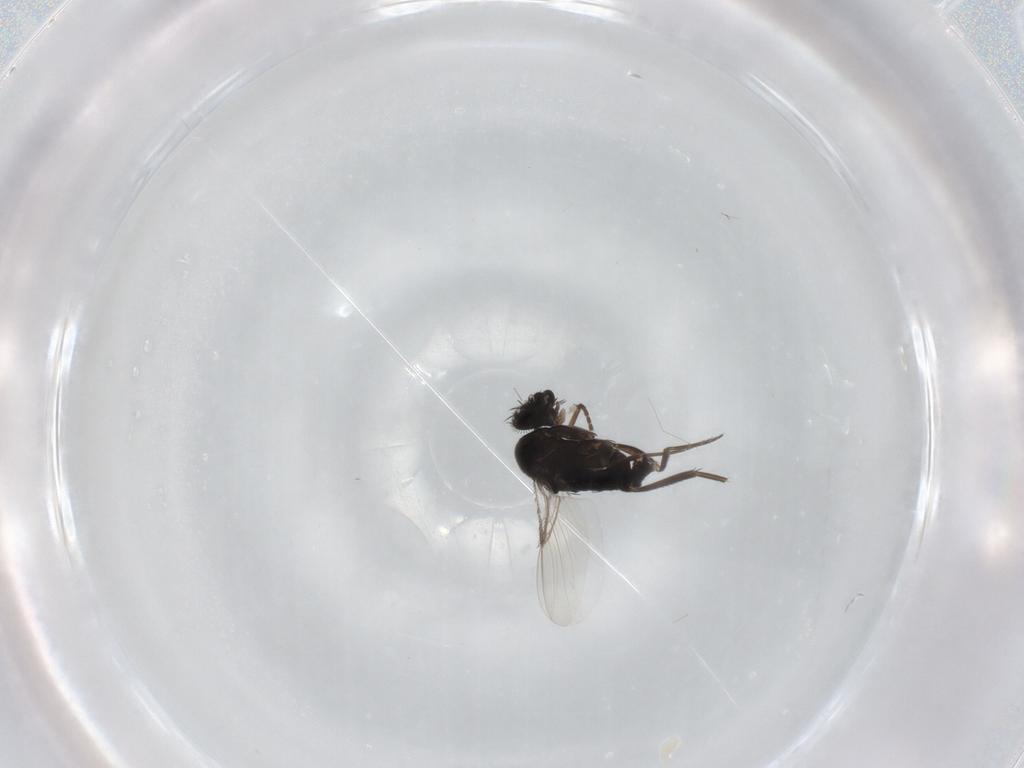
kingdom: Animalia
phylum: Arthropoda
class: Insecta
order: Diptera
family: Phoridae
